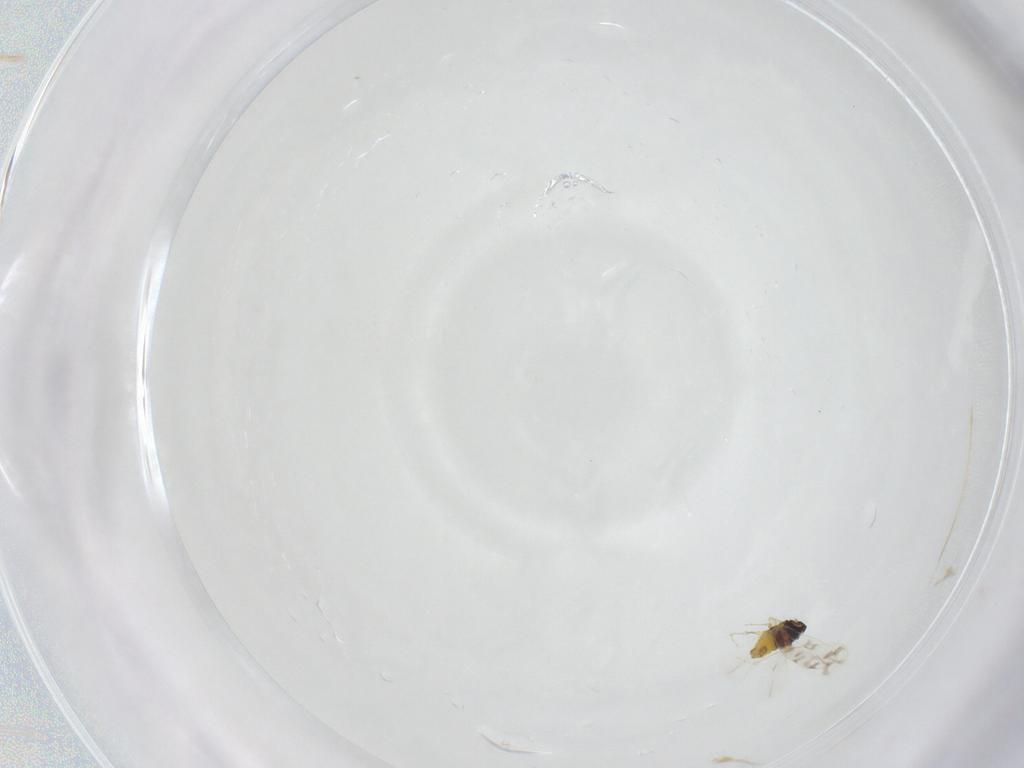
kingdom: Animalia
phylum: Arthropoda
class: Insecta
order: Hemiptera
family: Aleyrodidae
